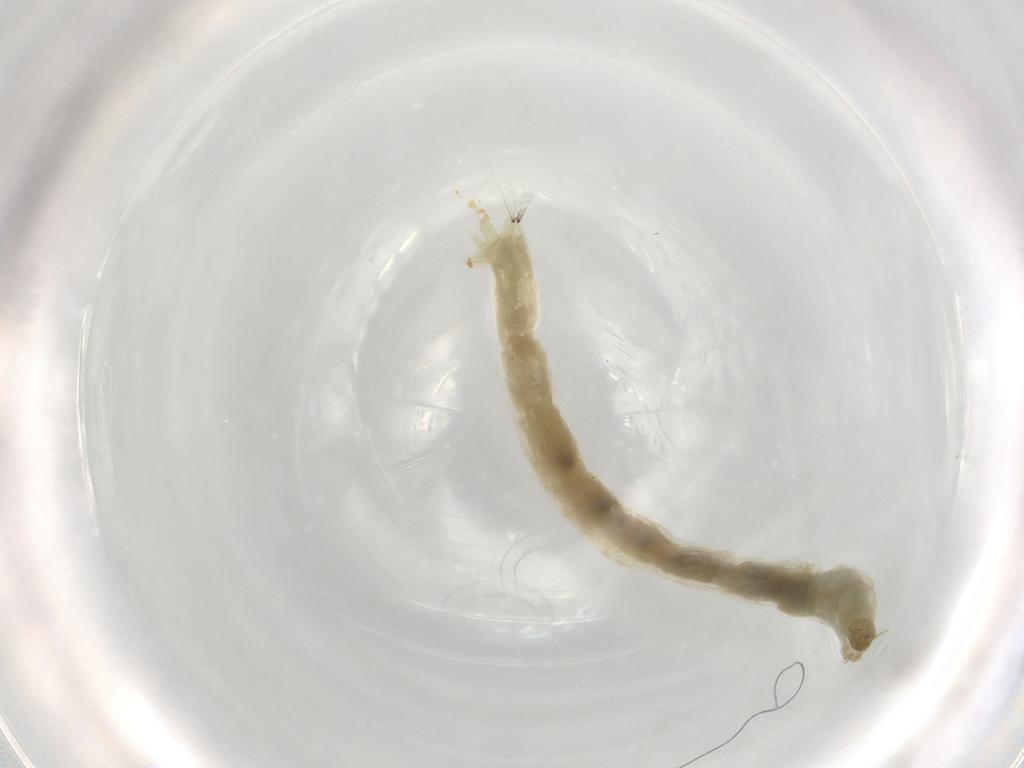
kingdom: Animalia
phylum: Arthropoda
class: Insecta
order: Diptera
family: Chironomidae
